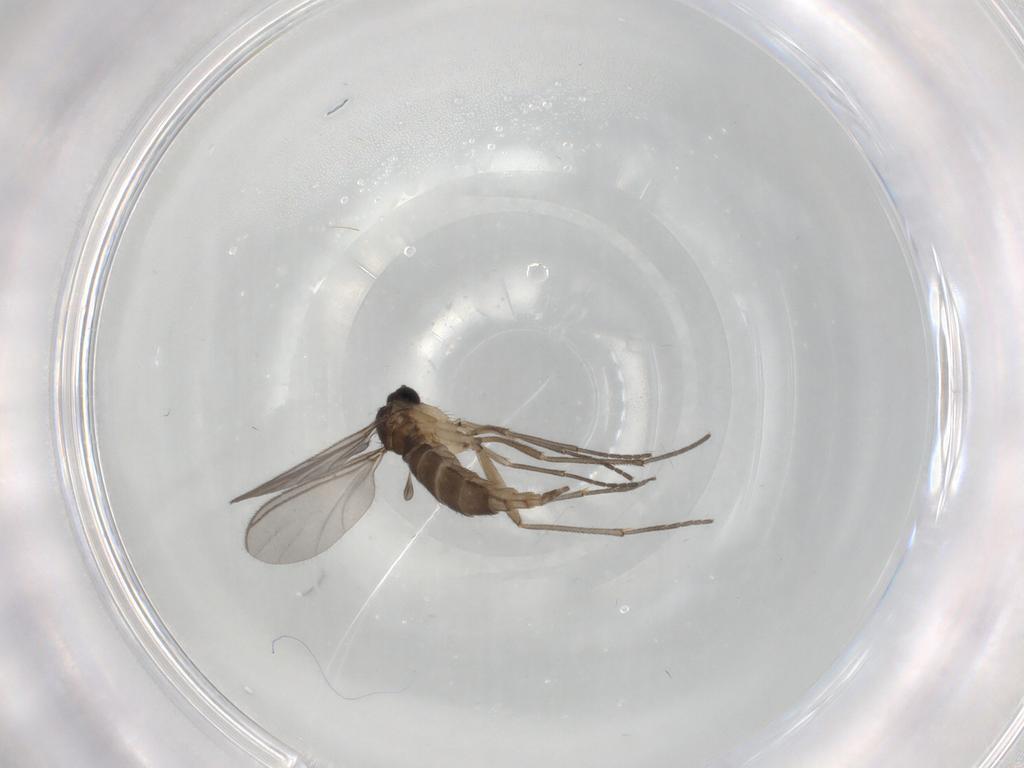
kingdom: Animalia
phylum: Arthropoda
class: Insecta
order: Diptera
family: Sciaridae
